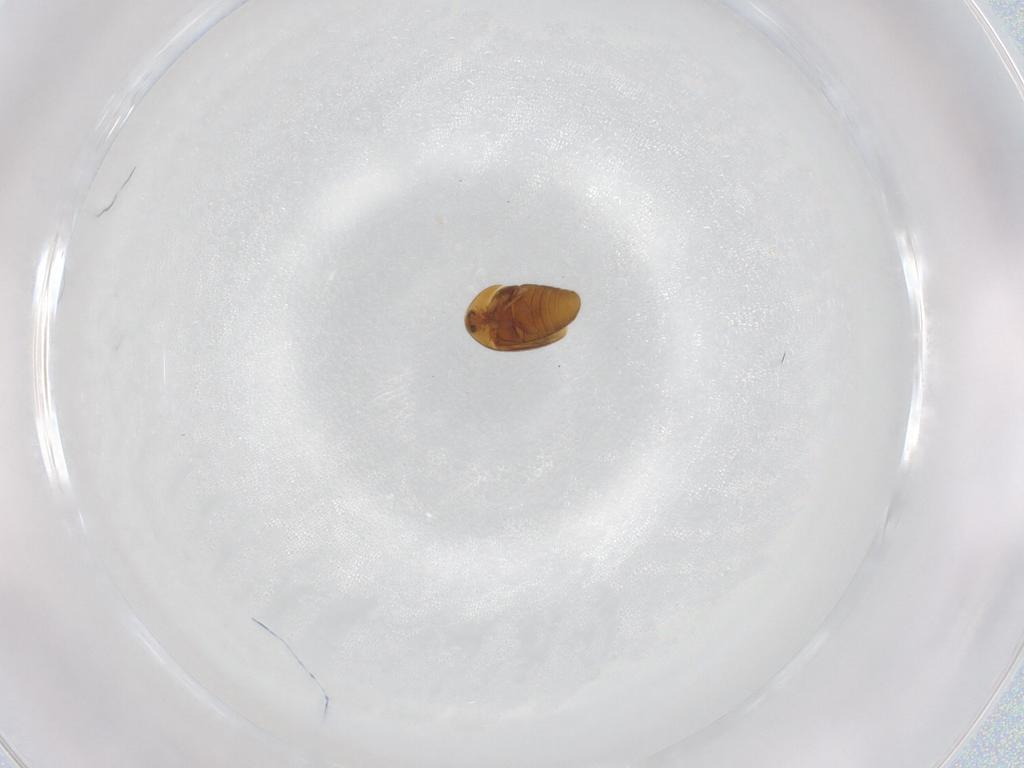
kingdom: Animalia
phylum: Arthropoda
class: Insecta
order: Coleoptera
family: Corylophidae
